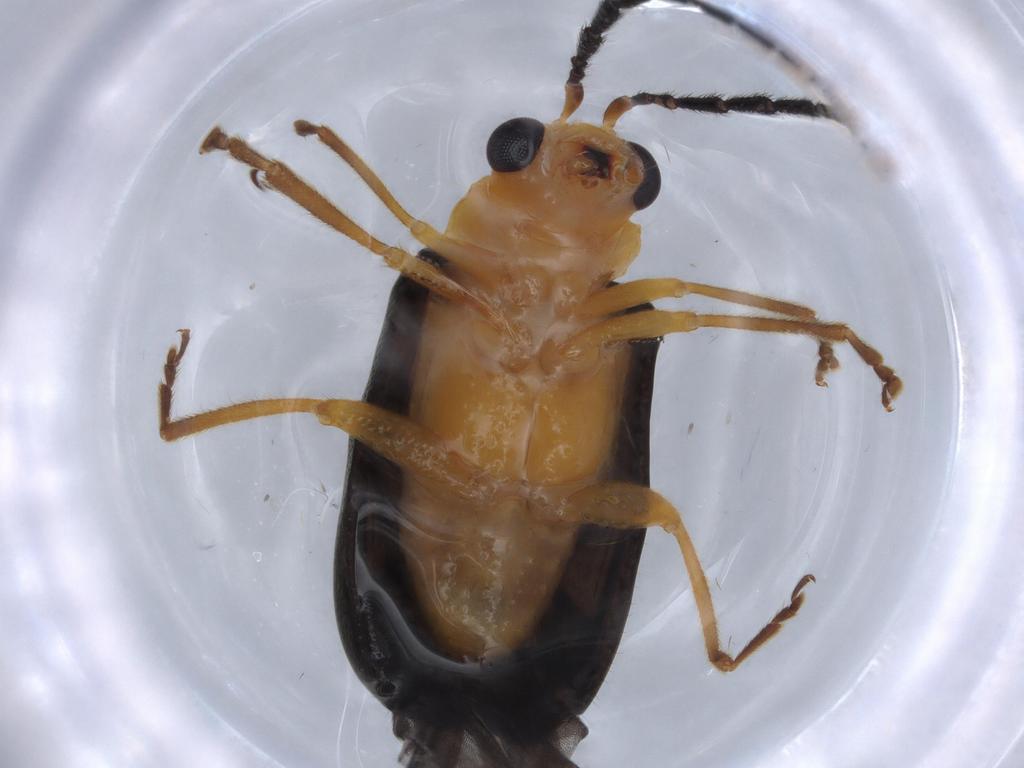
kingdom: Animalia
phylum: Arthropoda
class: Insecta
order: Coleoptera
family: Chrysomelidae
